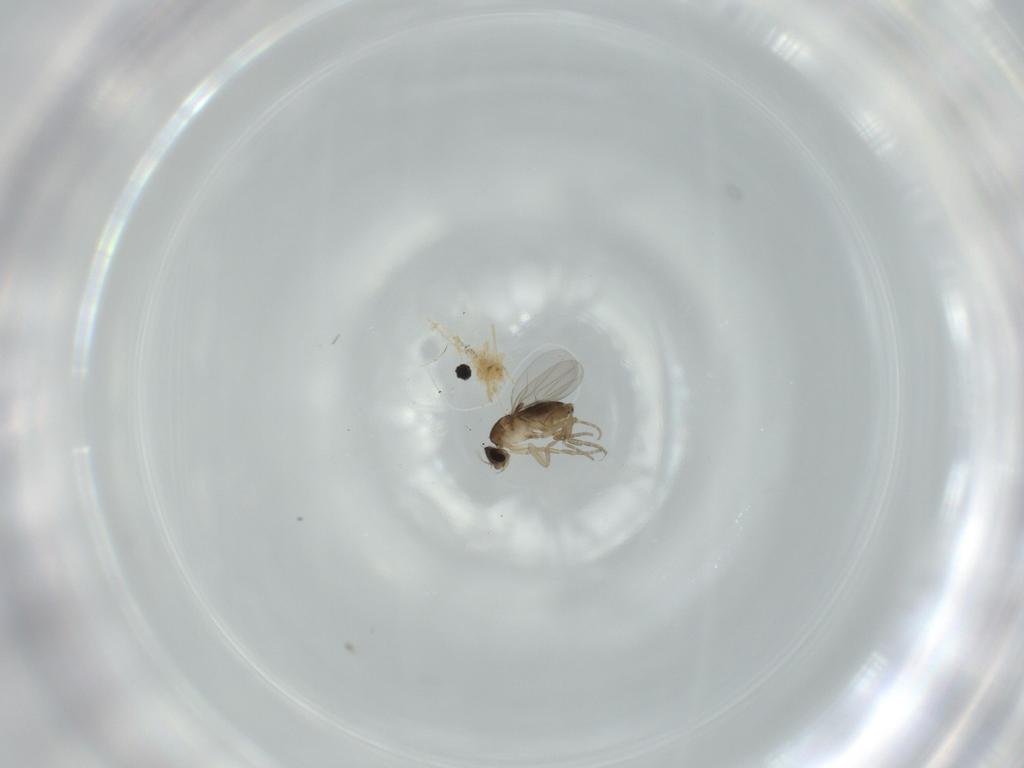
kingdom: Animalia
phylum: Arthropoda
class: Insecta
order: Diptera
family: Phoridae
